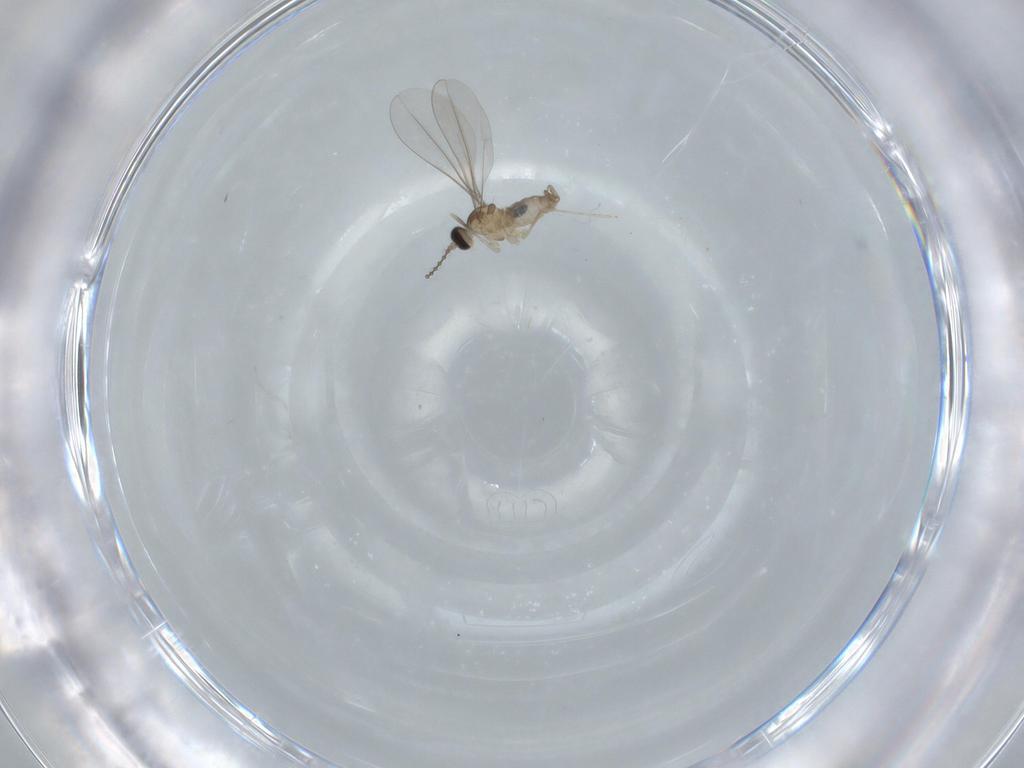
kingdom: Animalia
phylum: Arthropoda
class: Insecta
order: Diptera
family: Cecidomyiidae
